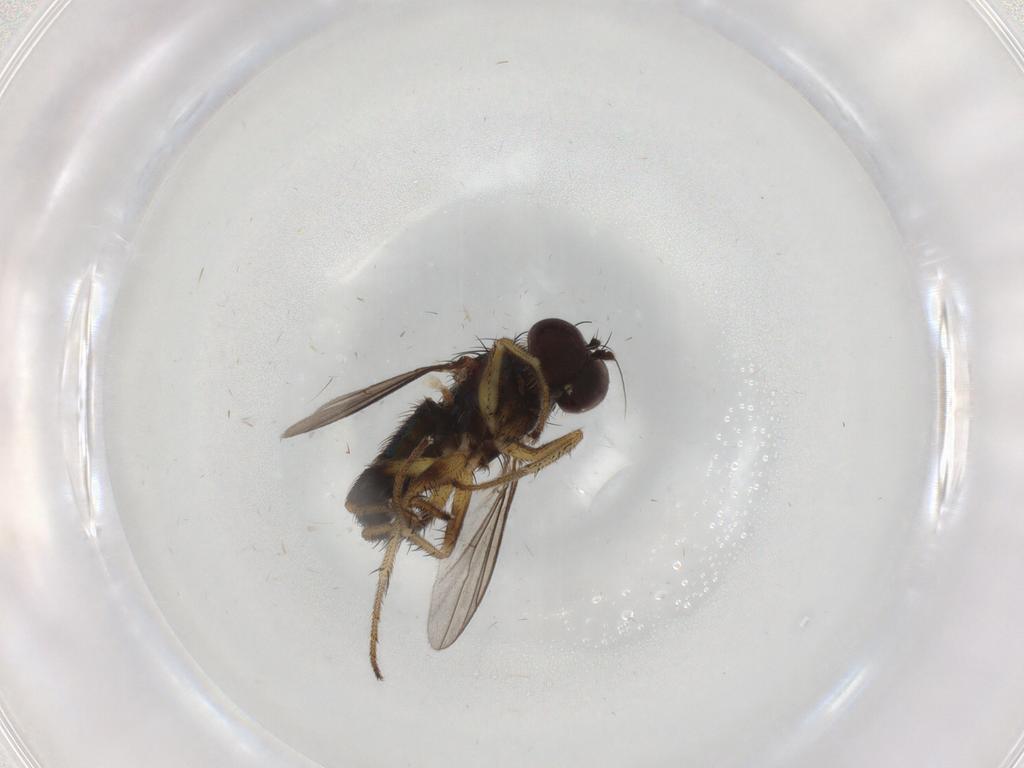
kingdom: Animalia
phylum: Arthropoda
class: Insecta
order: Diptera
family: Dolichopodidae
